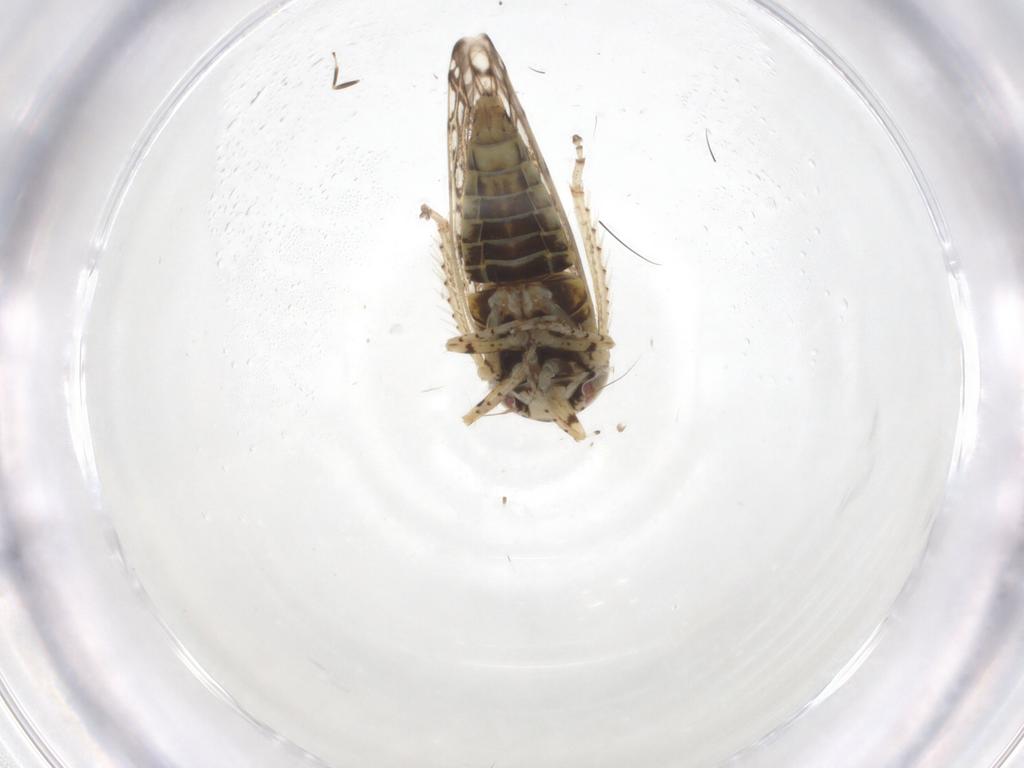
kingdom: Animalia
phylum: Arthropoda
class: Insecta
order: Hemiptera
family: Cicadellidae
